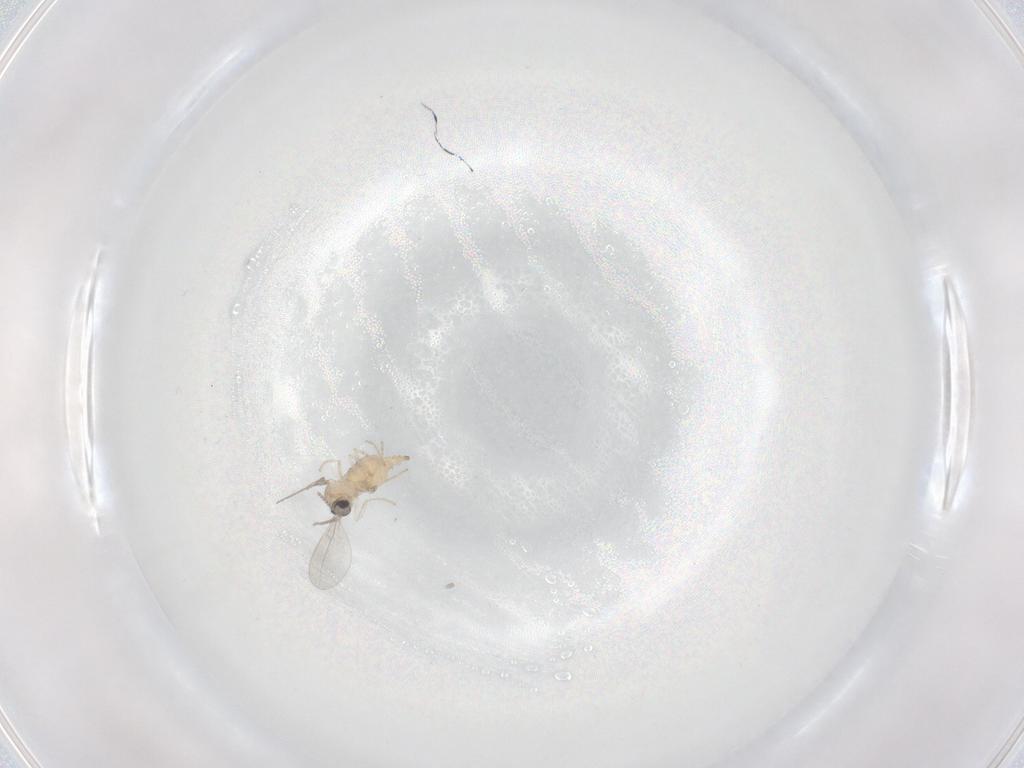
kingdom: Animalia
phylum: Arthropoda
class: Insecta
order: Diptera
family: Cecidomyiidae
